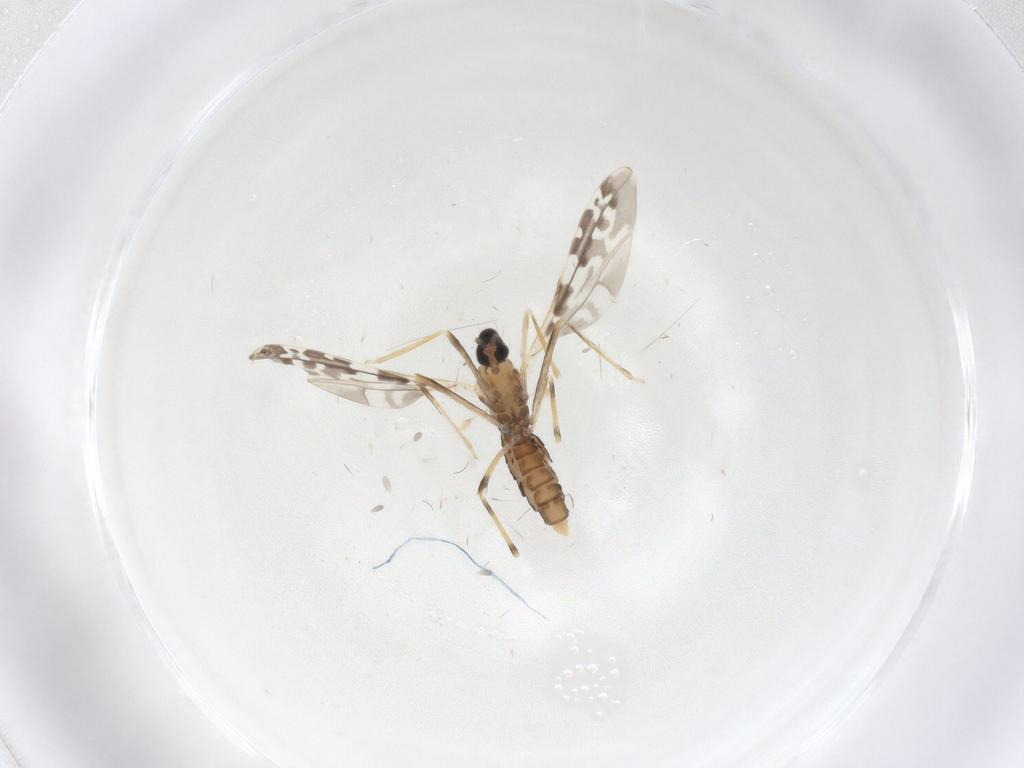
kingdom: Animalia
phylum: Arthropoda
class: Insecta
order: Diptera
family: Cecidomyiidae
